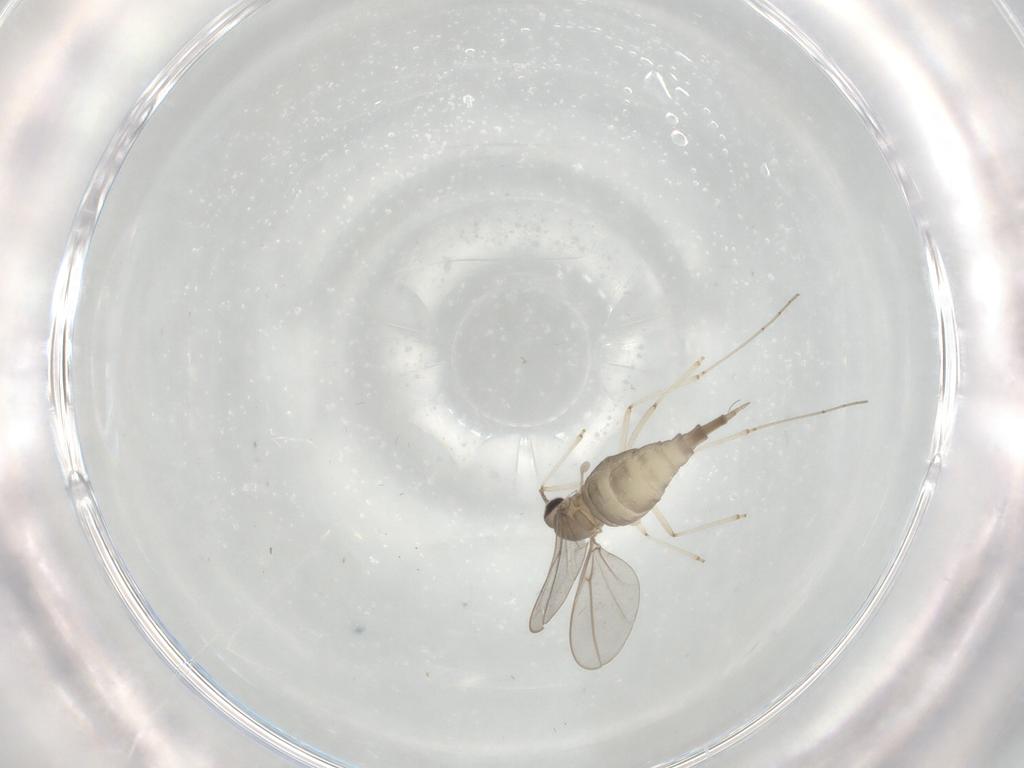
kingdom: Animalia
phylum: Arthropoda
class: Insecta
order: Diptera
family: Cecidomyiidae
